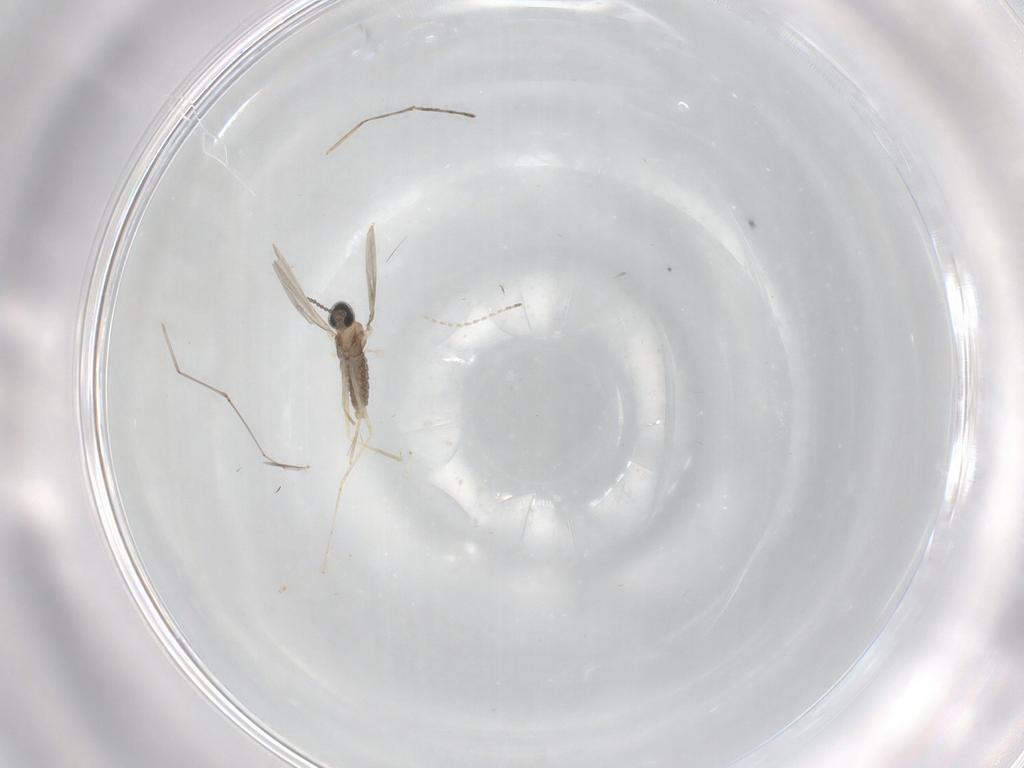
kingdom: Animalia
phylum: Arthropoda
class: Insecta
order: Diptera
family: Cecidomyiidae
